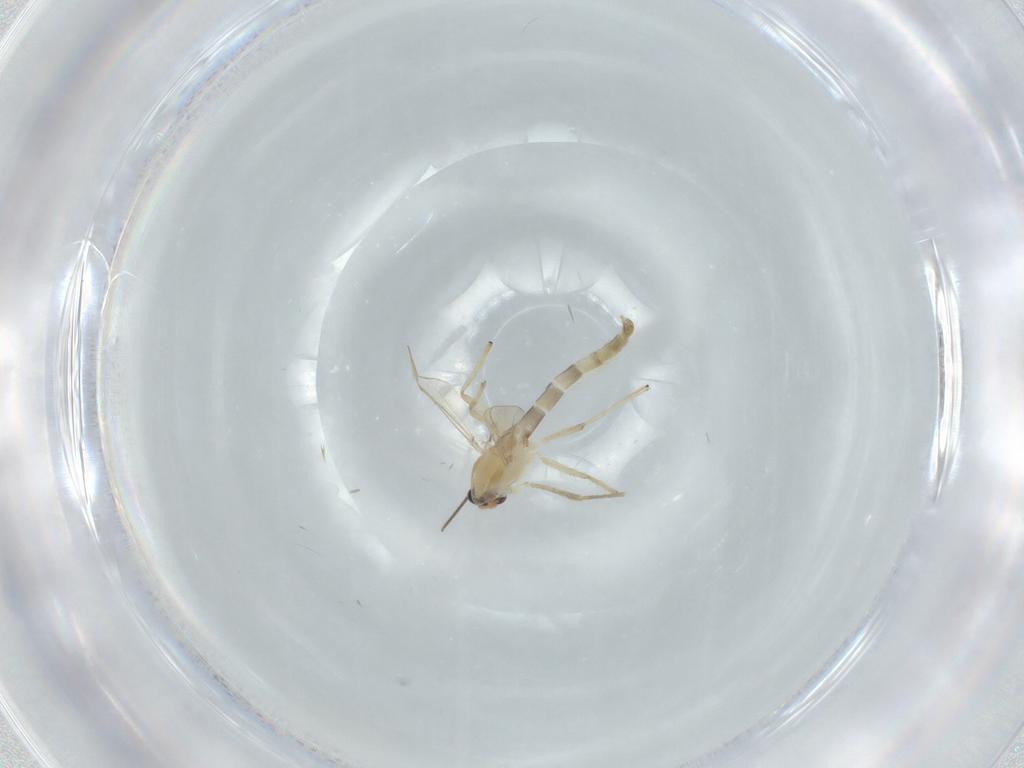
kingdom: Animalia
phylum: Arthropoda
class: Insecta
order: Diptera
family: Chironomidae
